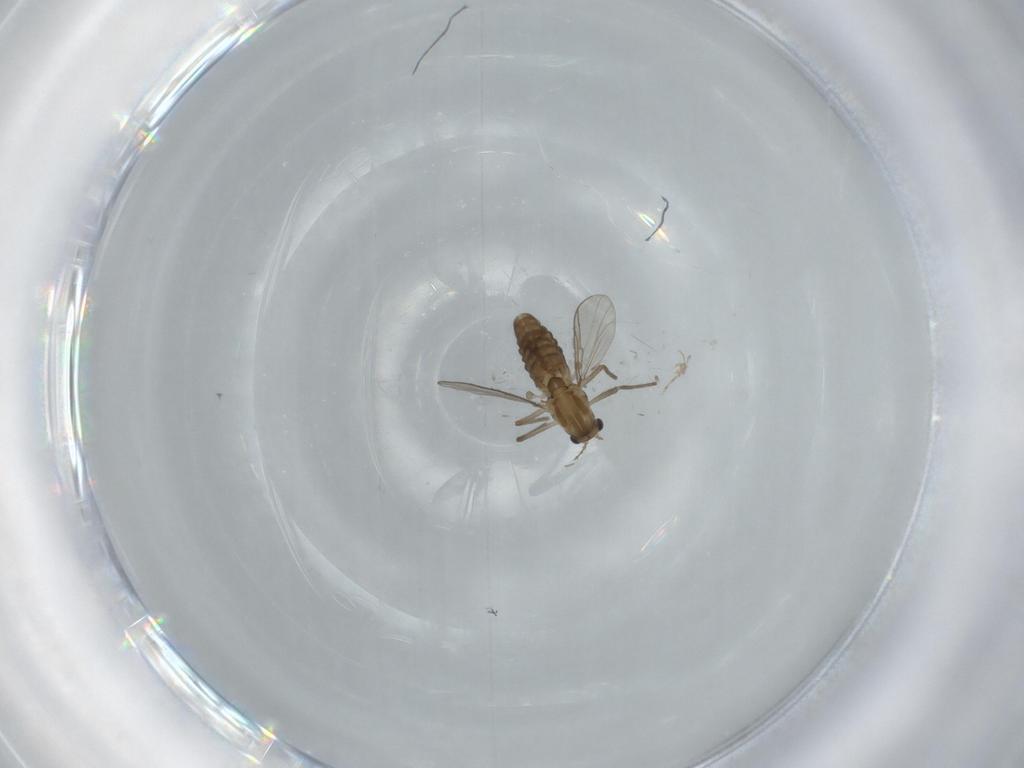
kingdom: Animalia
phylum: Arthropoda
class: Insecta
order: Diptera
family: Chironomidae
